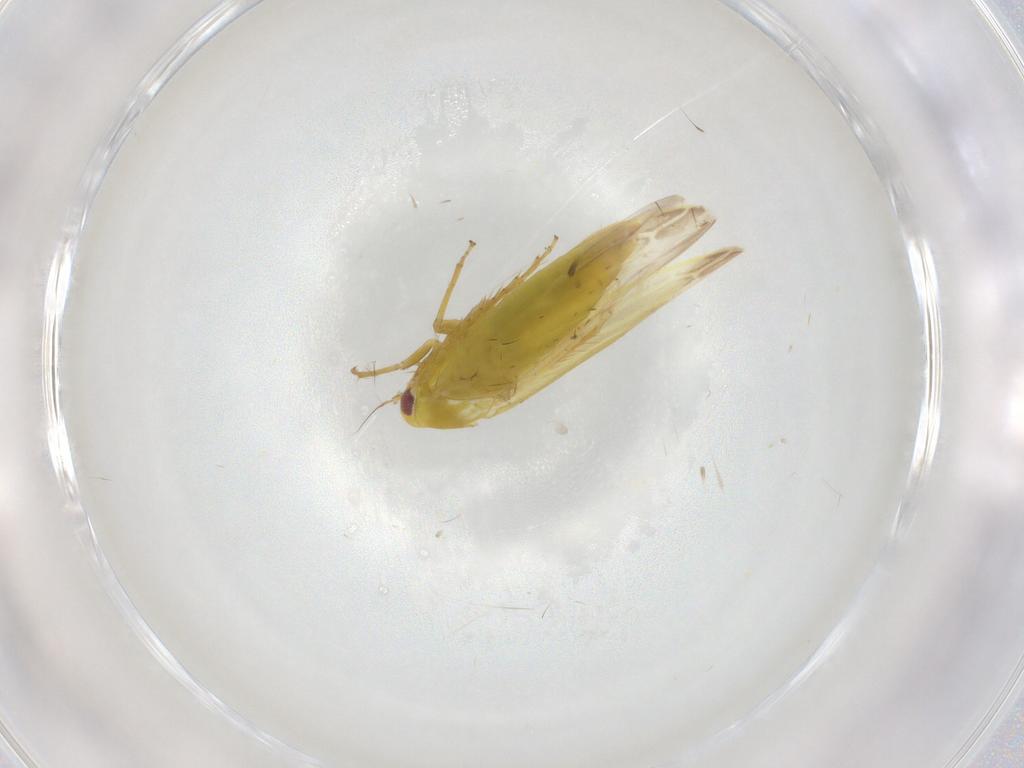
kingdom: Animalia
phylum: Arthropoda
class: Insecta
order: Hemiptera
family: Cicadellidae
